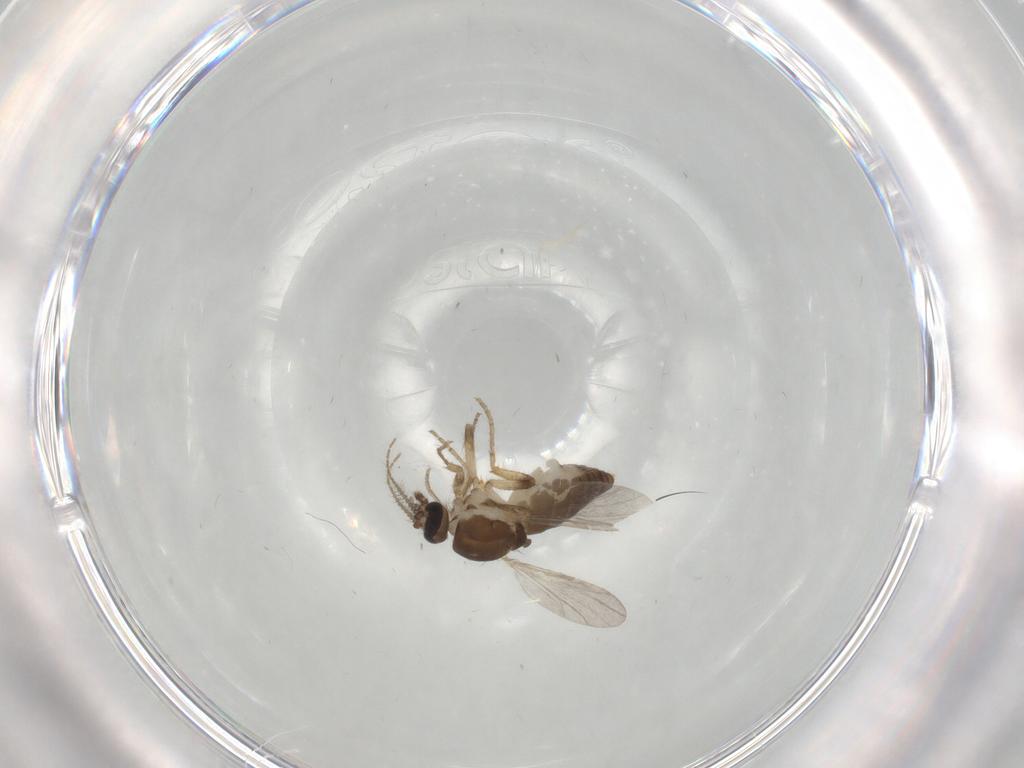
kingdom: Animalia
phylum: Arthropoda
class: Insecta
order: Diptera
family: Ceratopogonidae
